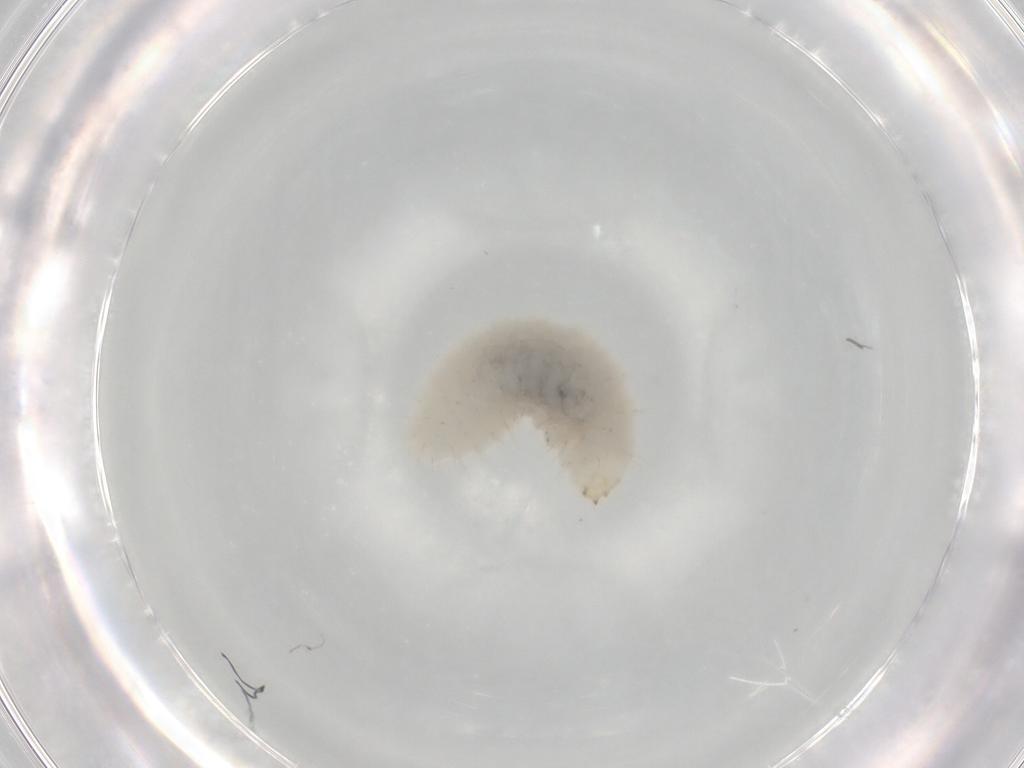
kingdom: Animalia
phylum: Arthropoda
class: Insecta
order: Hymenoptera
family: Torymidae
